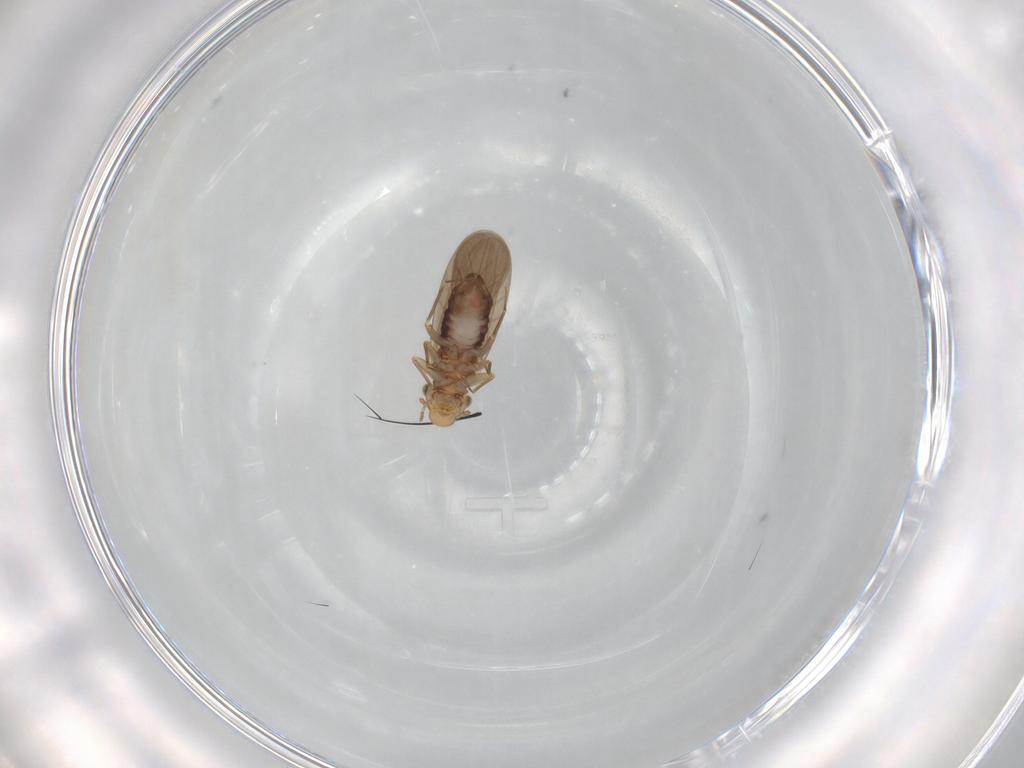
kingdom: Animalia
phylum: Arthropoda
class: Insecta
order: Psocodea
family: Lepidopsocidae
